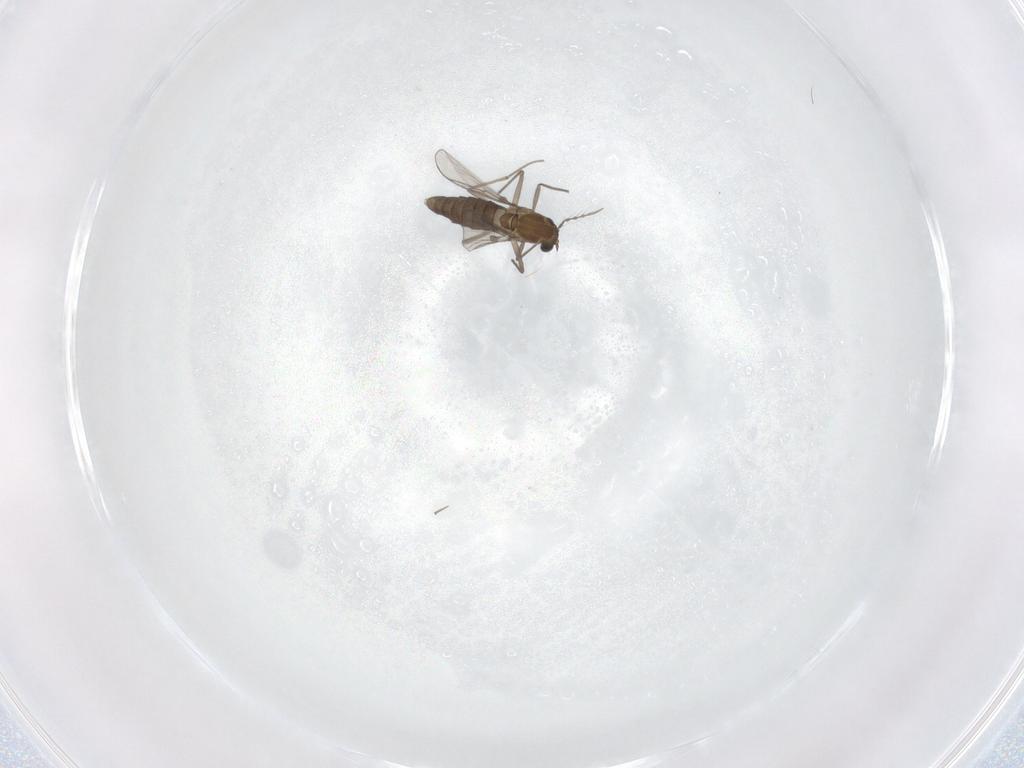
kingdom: Animalia
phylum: Arthropoda
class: Insecta
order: Diptera
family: Chironomidae
